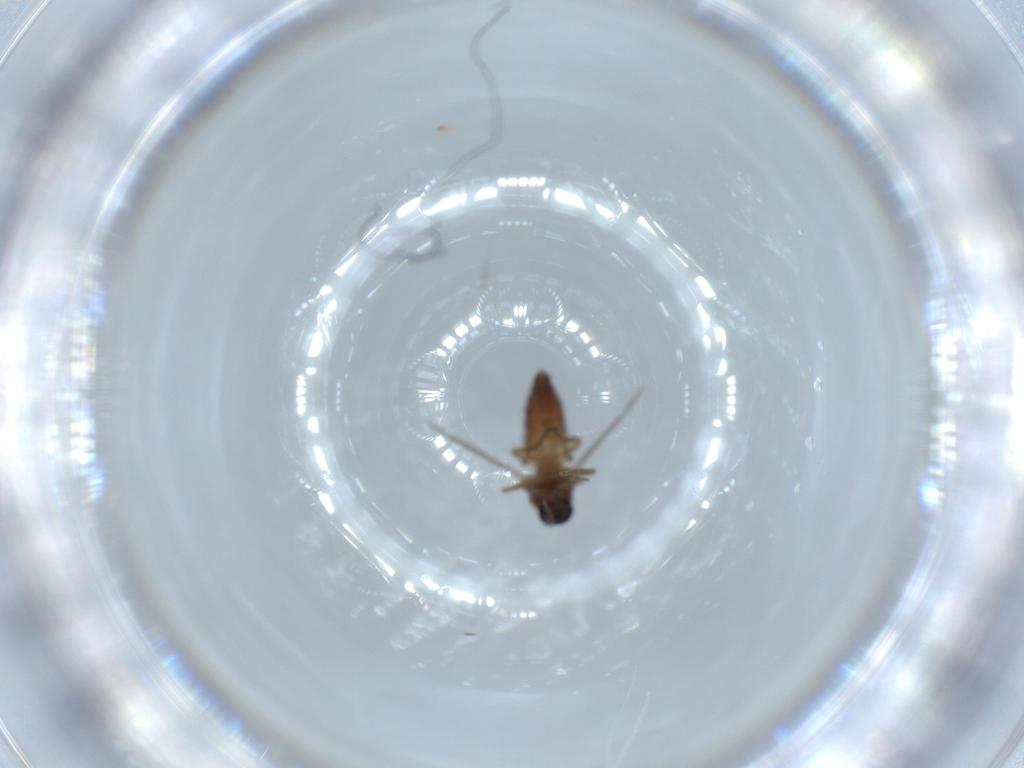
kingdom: Animalia
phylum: Arthropoda
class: Insecta
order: Diptera
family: Ceratopogonidae
